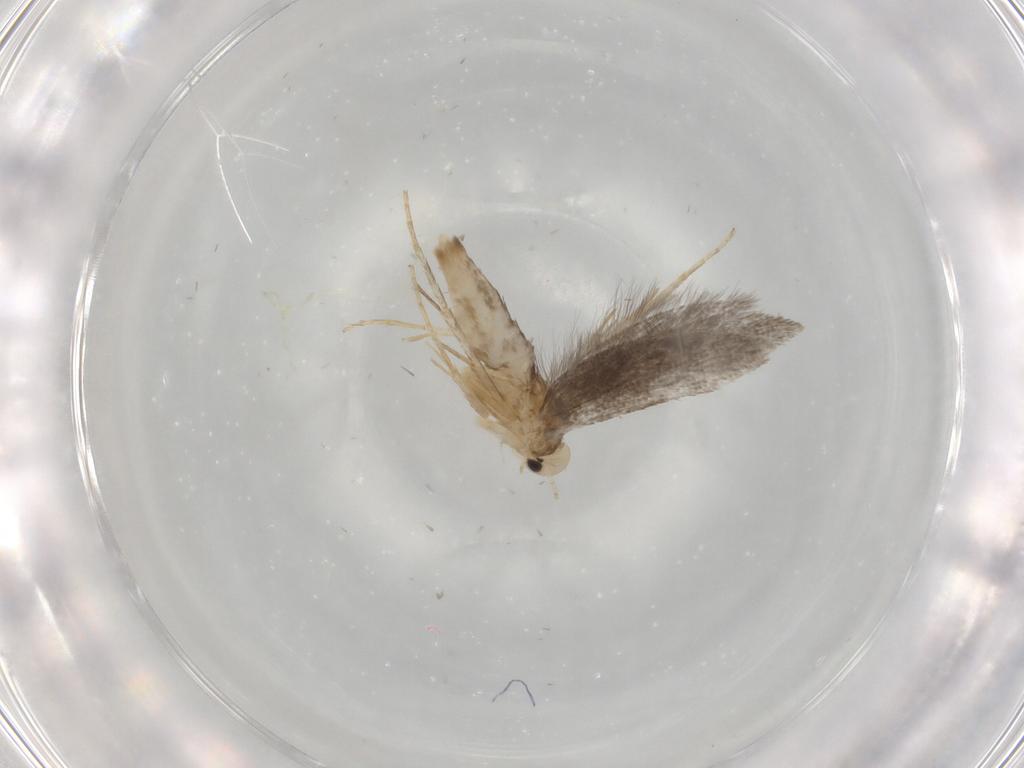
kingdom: Animalia
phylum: Arthropoda
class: Insecta
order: Lepidoptera
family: Schreckensteiniidae
